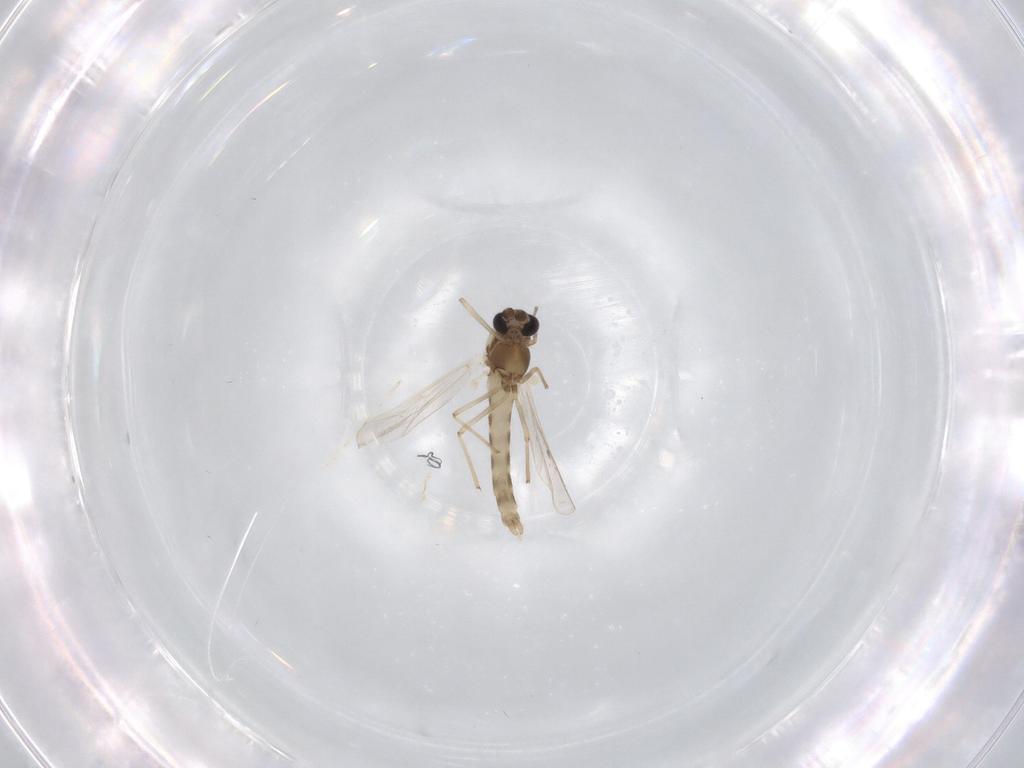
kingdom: Animalia
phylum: Arthropoda
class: Insecta
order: Diptera
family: Chironomidae
